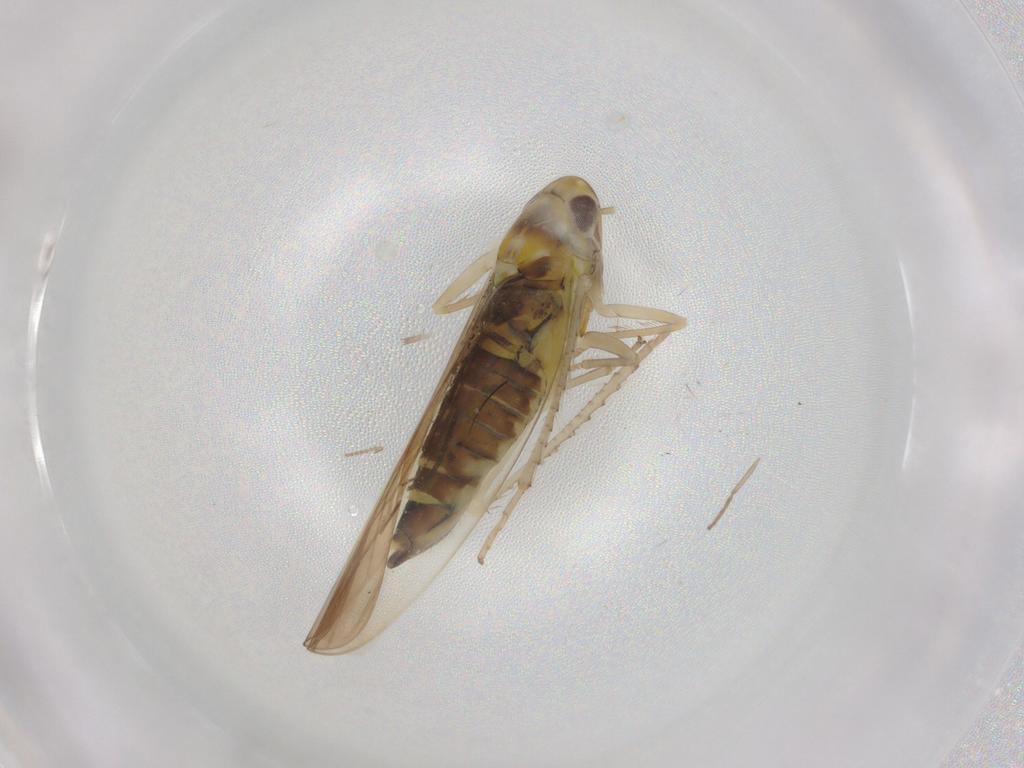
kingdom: Animalia
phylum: Arthropoda
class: Insecta
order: Hemiptera
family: Cicadellidae
